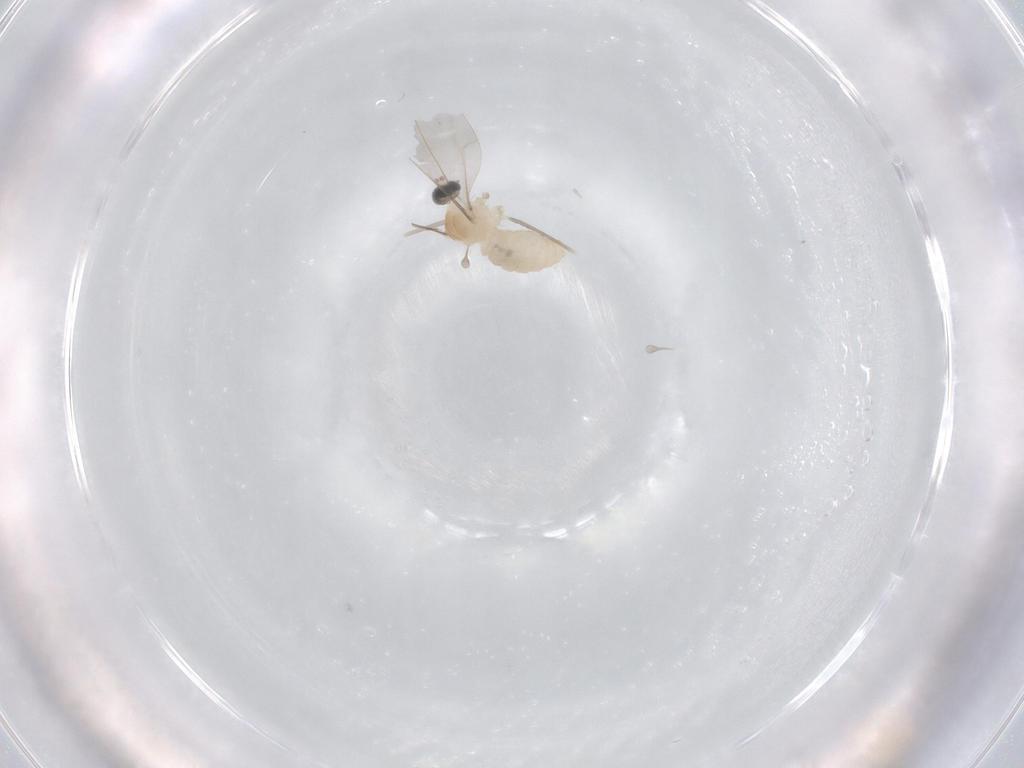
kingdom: Animalia
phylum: Arthropoda
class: Insecta
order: Diptera
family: Cecidomyiidae
